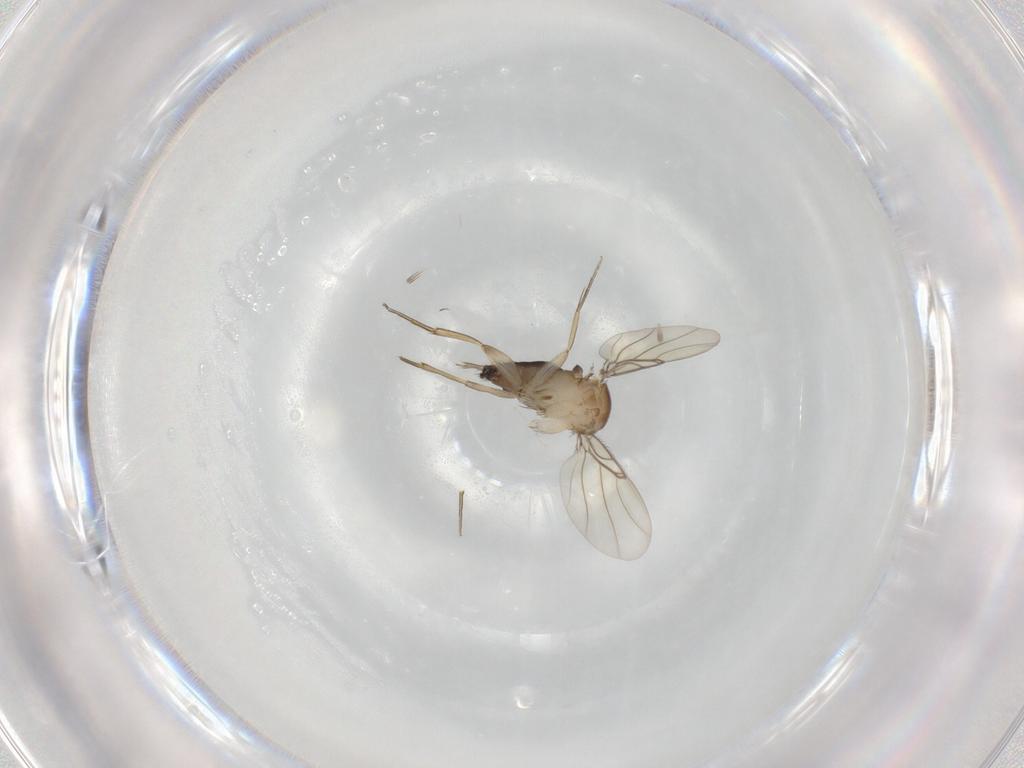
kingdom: Animalia
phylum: Arthropoda
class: Insecta
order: Diptera
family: Phoridae
